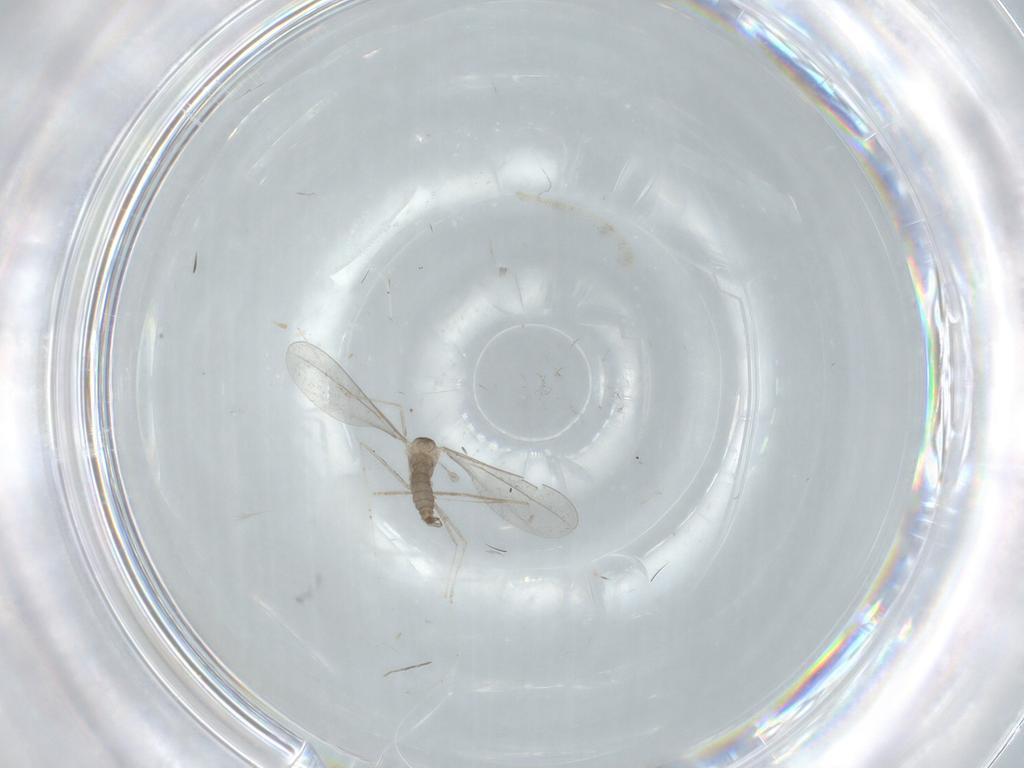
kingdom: Animalia
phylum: Arthropoda
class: Insecta
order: Diptera
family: Cecidomyiidae
